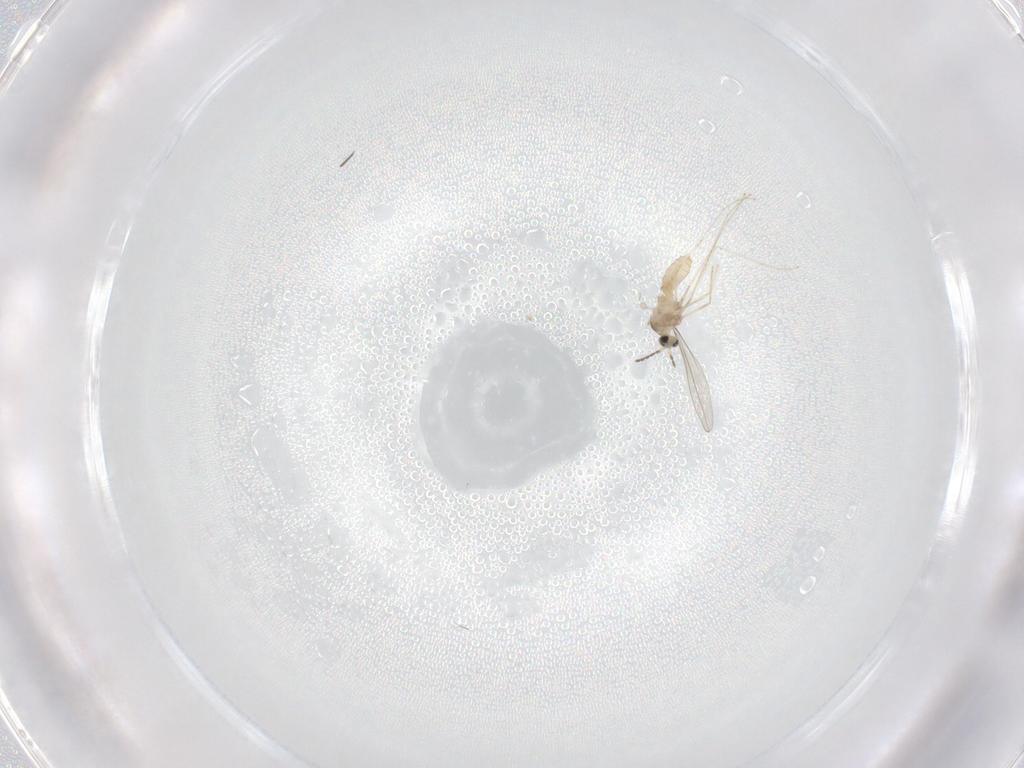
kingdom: Animalia
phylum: Arthropoda
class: Insecta
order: Diptera
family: Cecidomyiidae
